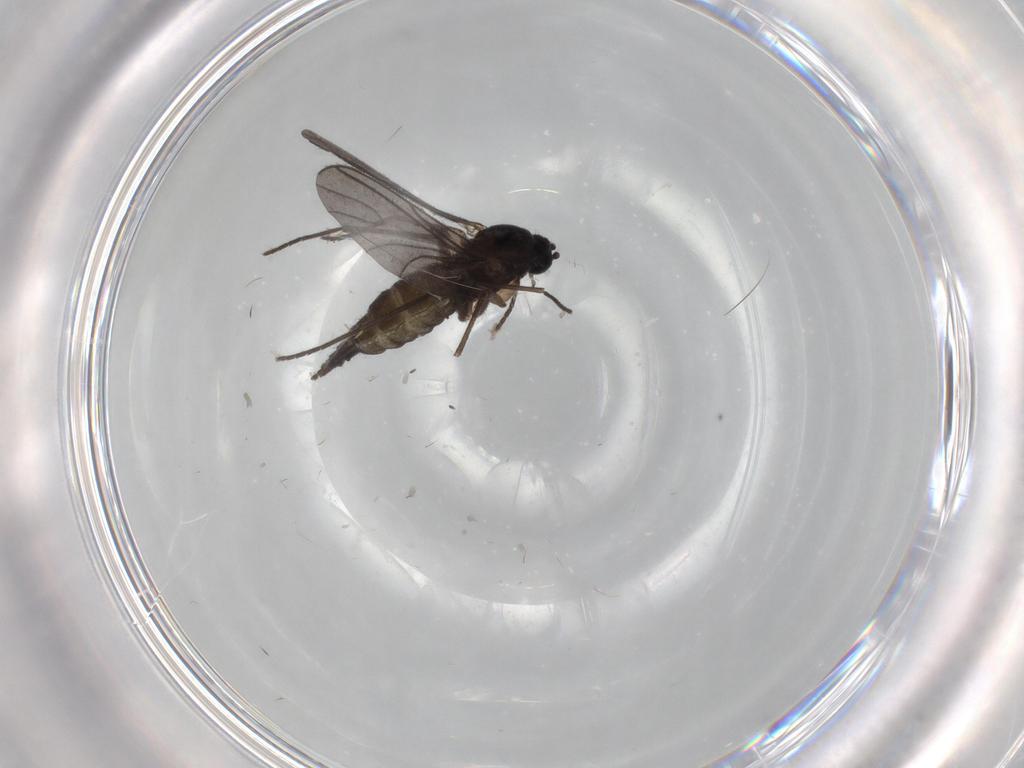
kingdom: Animalia
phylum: Arthropoda
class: Insecta
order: Diptera
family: Sciaridae
